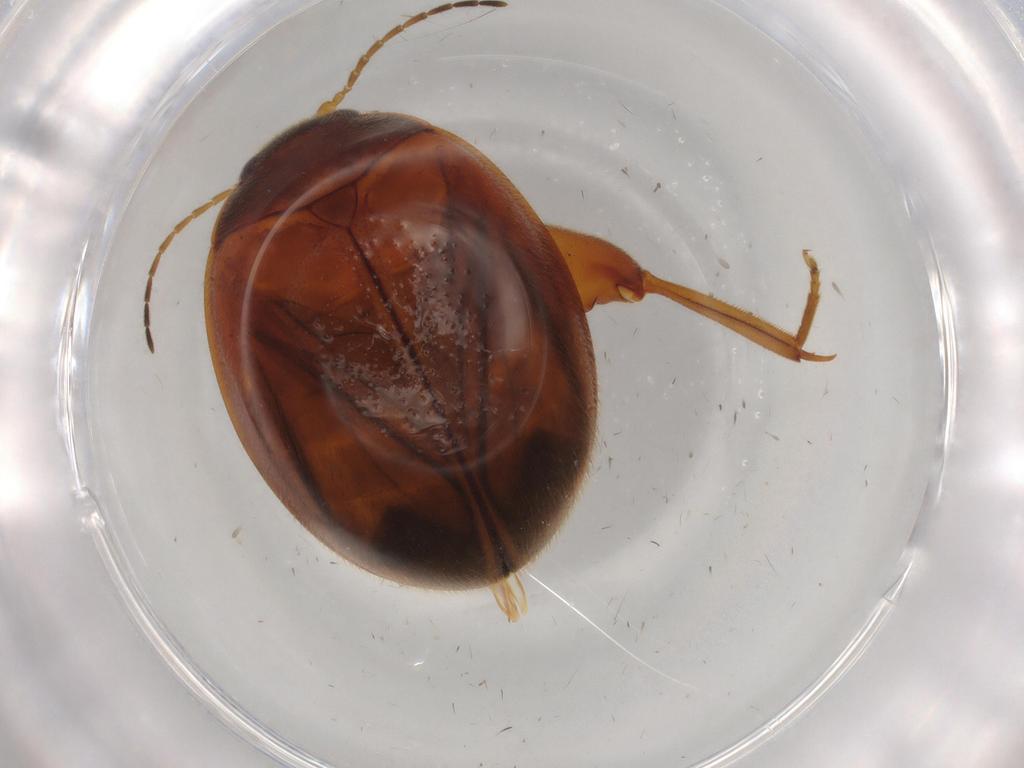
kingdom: Animalia
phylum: Arthropoda
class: Insecta
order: Coleoptera
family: Scirtidae
